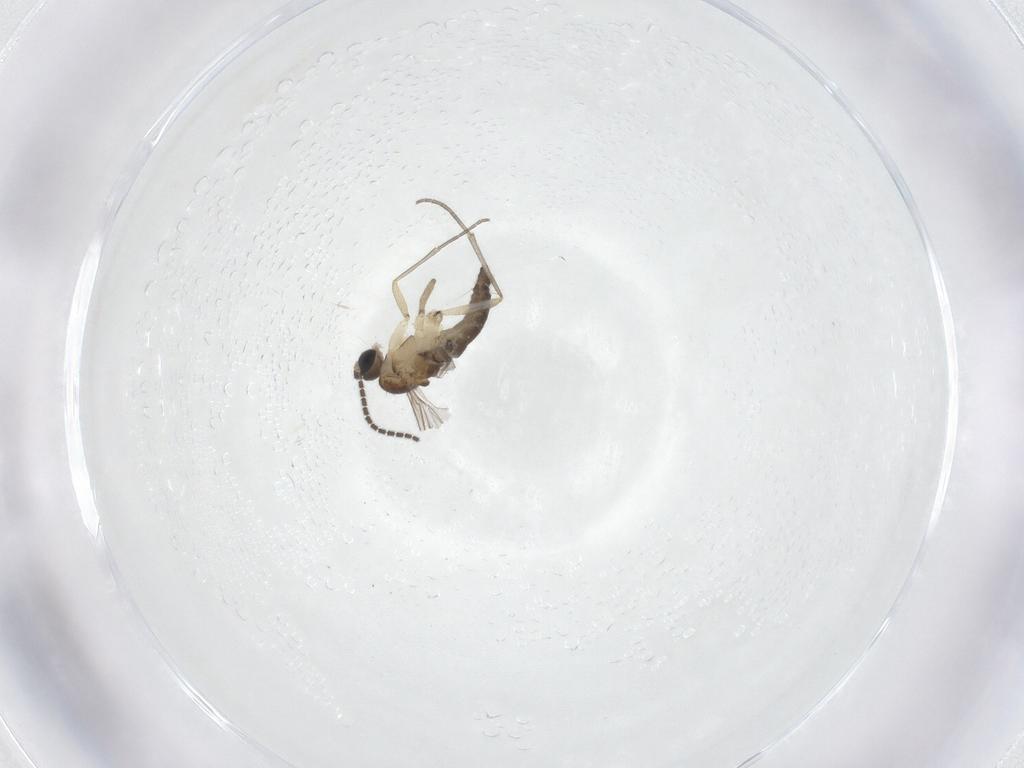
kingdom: Animalia
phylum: Arthropoda
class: Insecta
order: Diptera
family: Sciaridae
